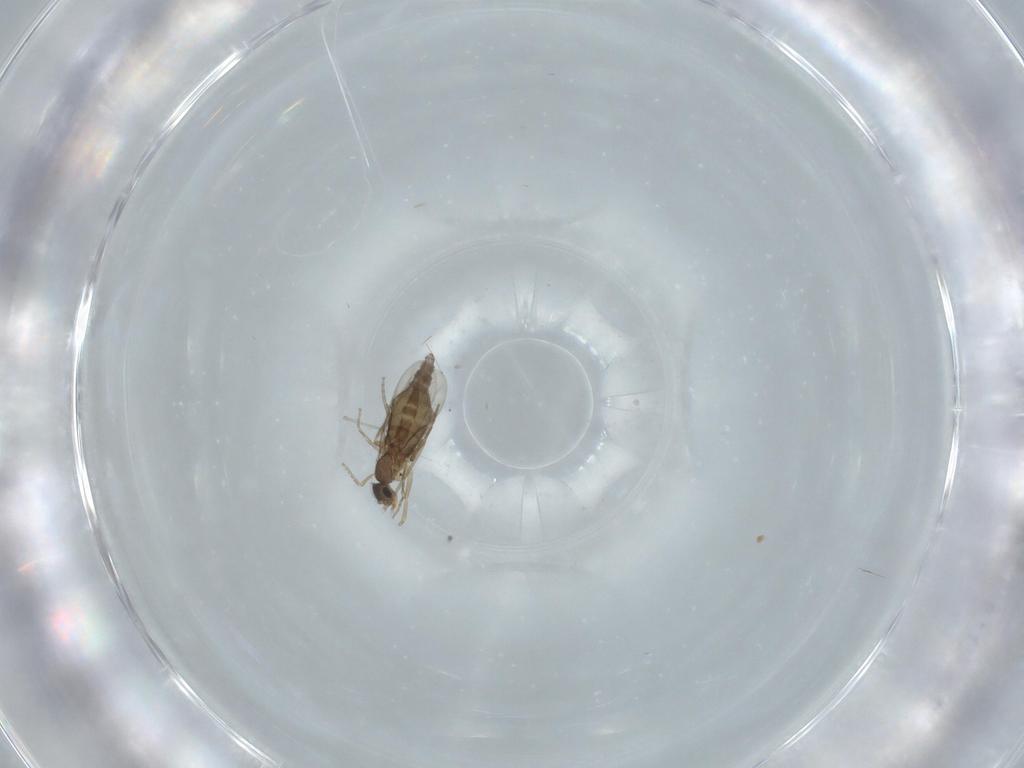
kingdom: Animalia
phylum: Arthropoda
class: Insecta
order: Diptera
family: Phoridae
